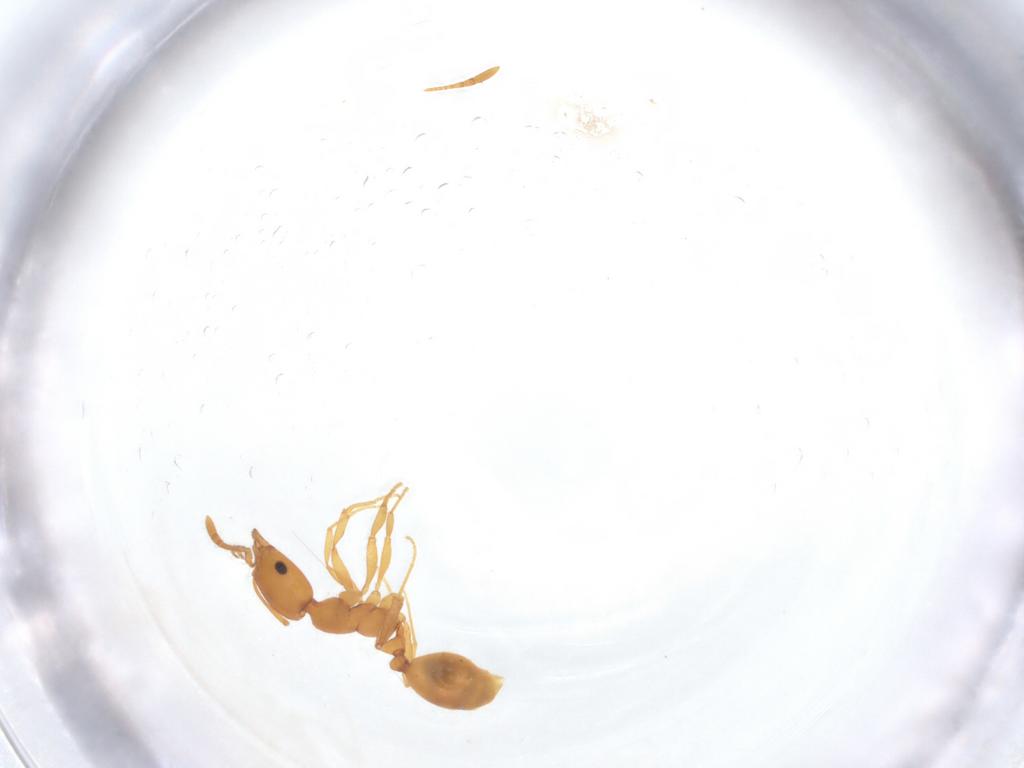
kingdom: Animalia
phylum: Arthropoda
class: Insecta
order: Hymenoptera
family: Formicidae
